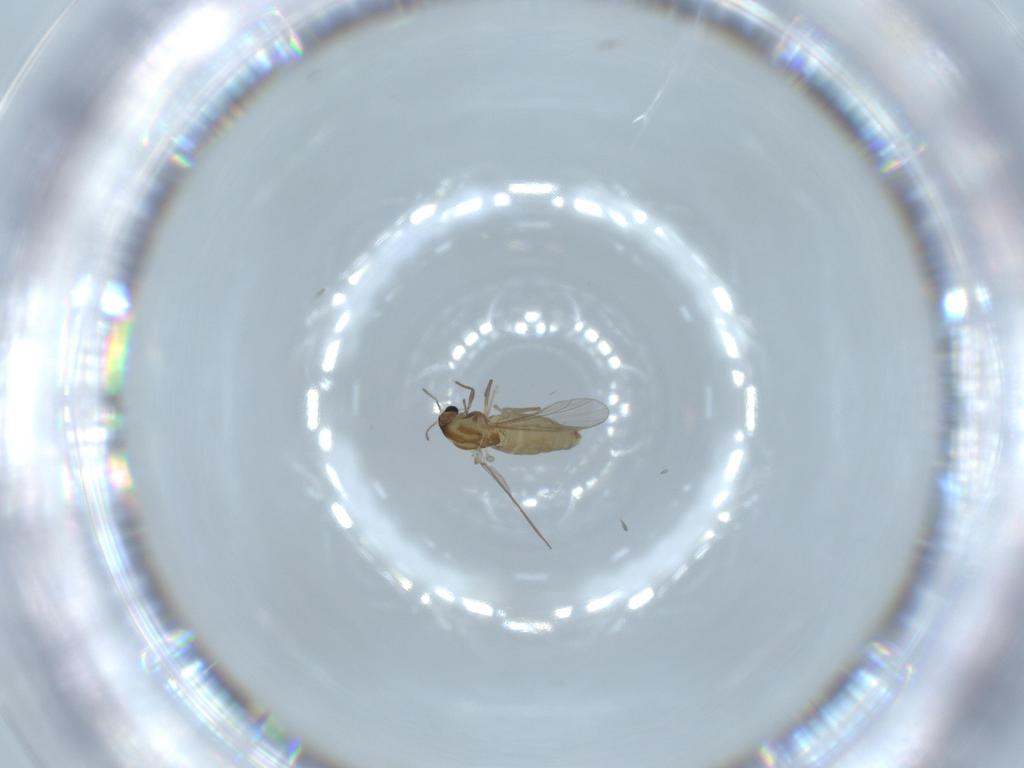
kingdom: Animalia
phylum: Arthropoda
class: Insecta
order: Diptera
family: Chironomidae
